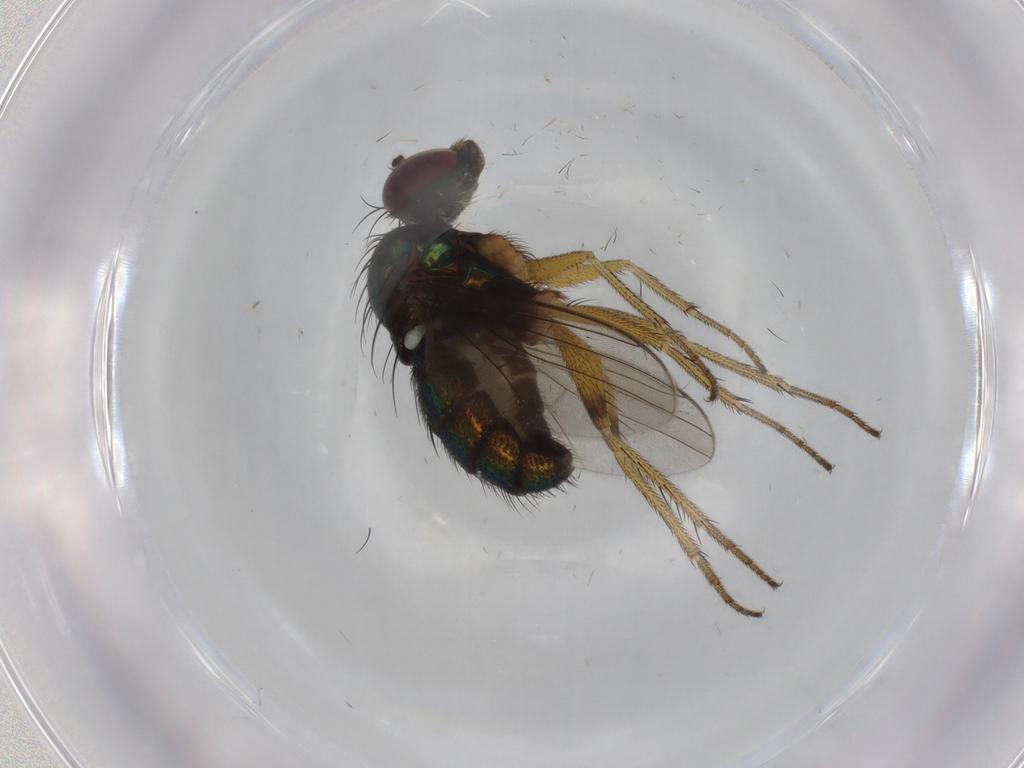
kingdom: Animalia
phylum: Arthropoda
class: Insecta
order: Diptera
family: Dolichopodidae
